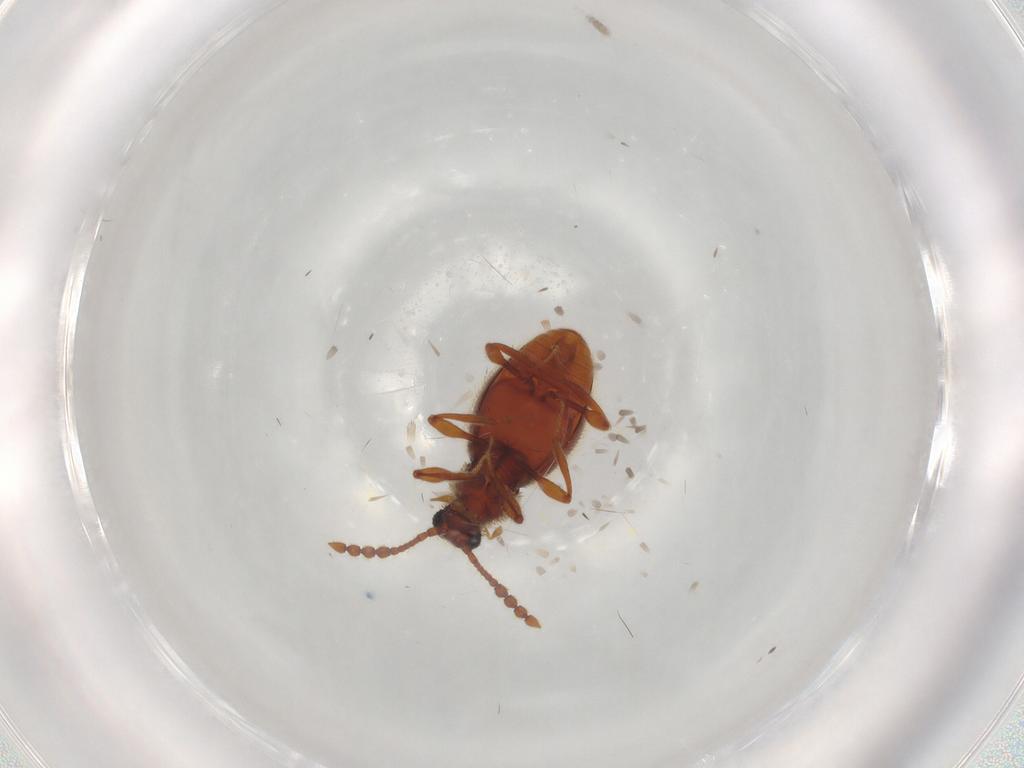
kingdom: Animalia
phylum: Arthropoda
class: Insecta
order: Coleoptera
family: Staphylinidae
